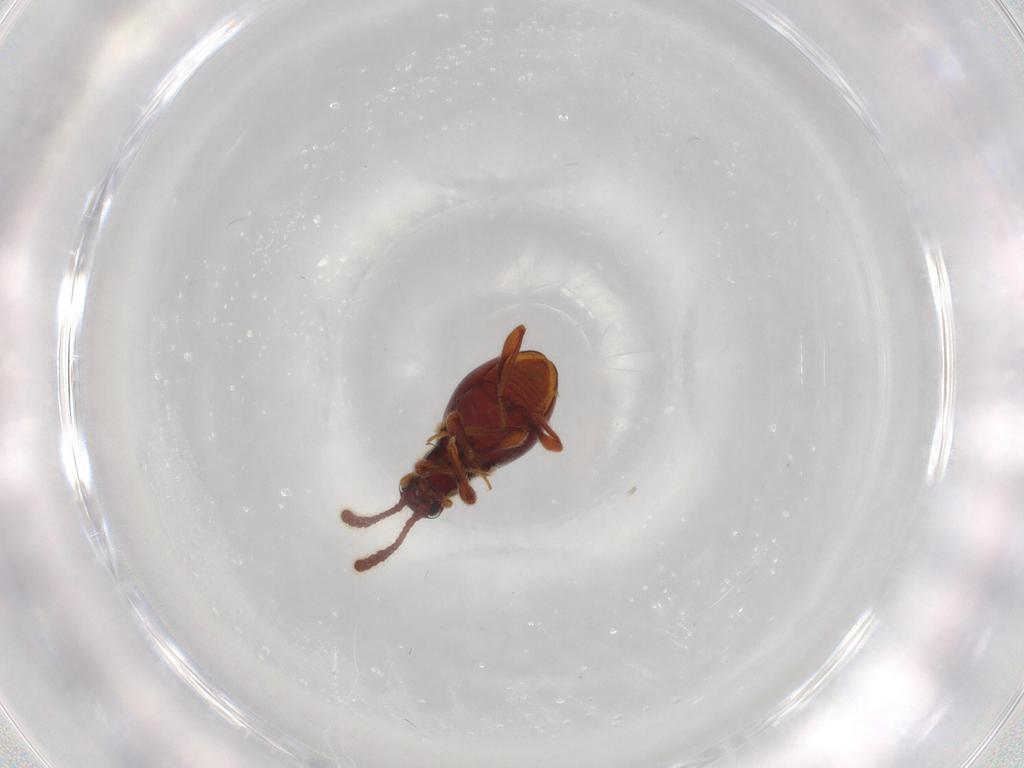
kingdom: Animalia
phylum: Arthropoda
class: Insecta
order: Coleoptera
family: Staphylinidae
